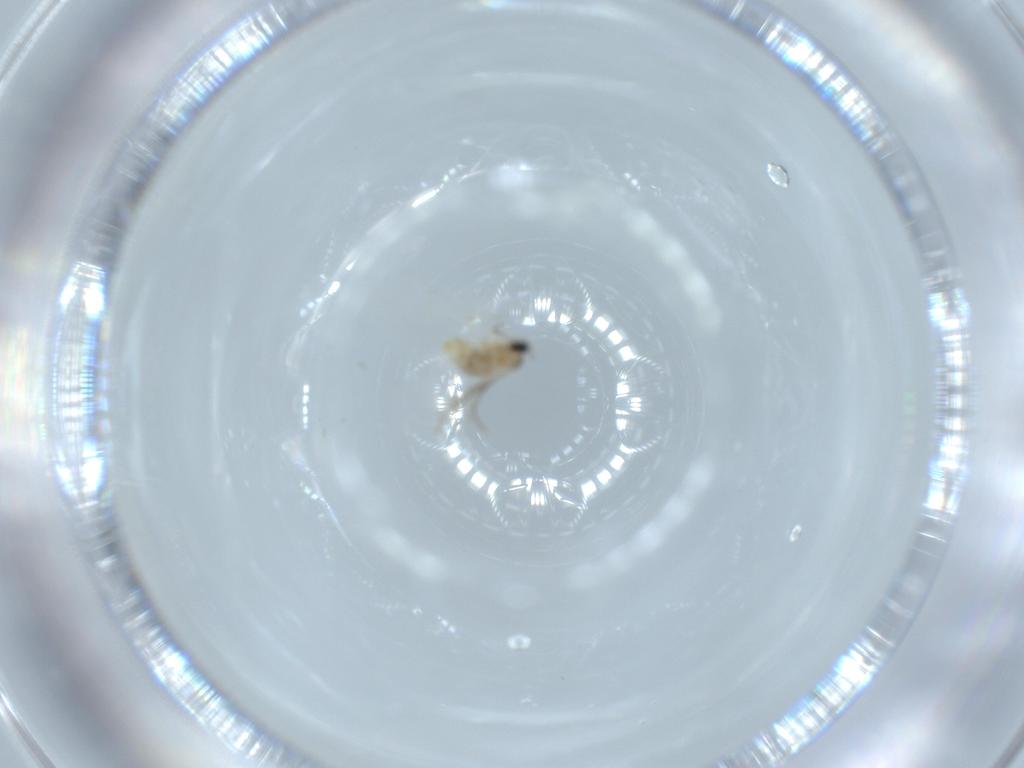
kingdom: Animalia
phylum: Arthropoda
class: Insecta
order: Diptera
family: Cecidomyiidae
